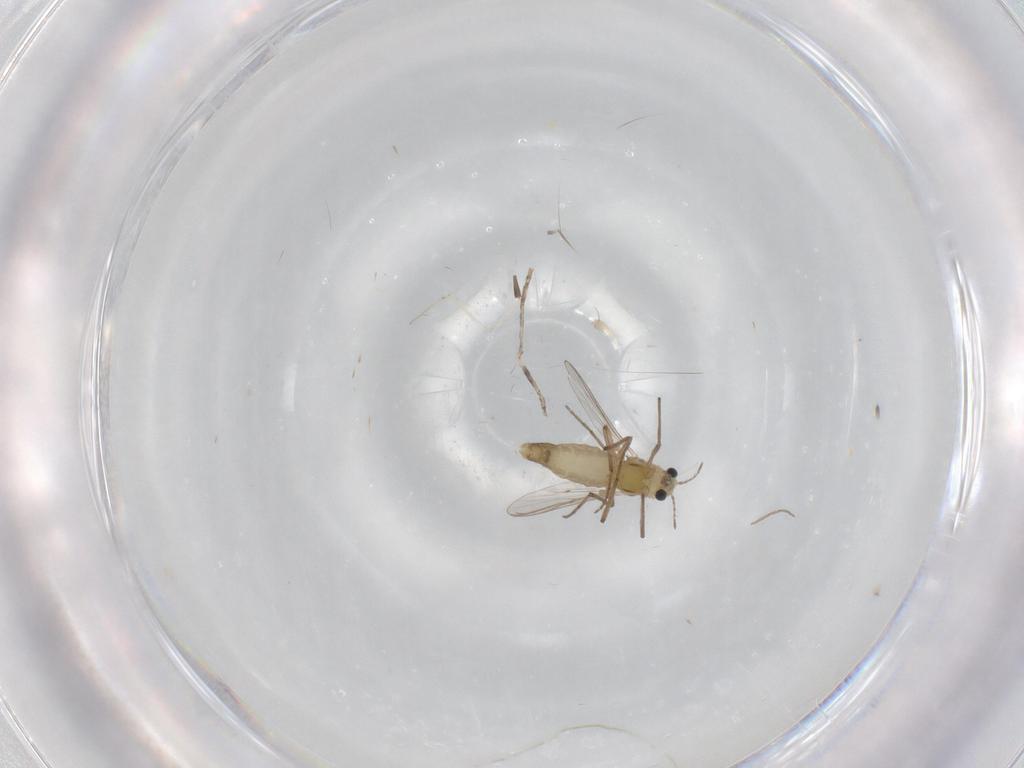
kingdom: Animalia
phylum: Arthropoda
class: Insecta
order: Diptera
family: Chironomidae
